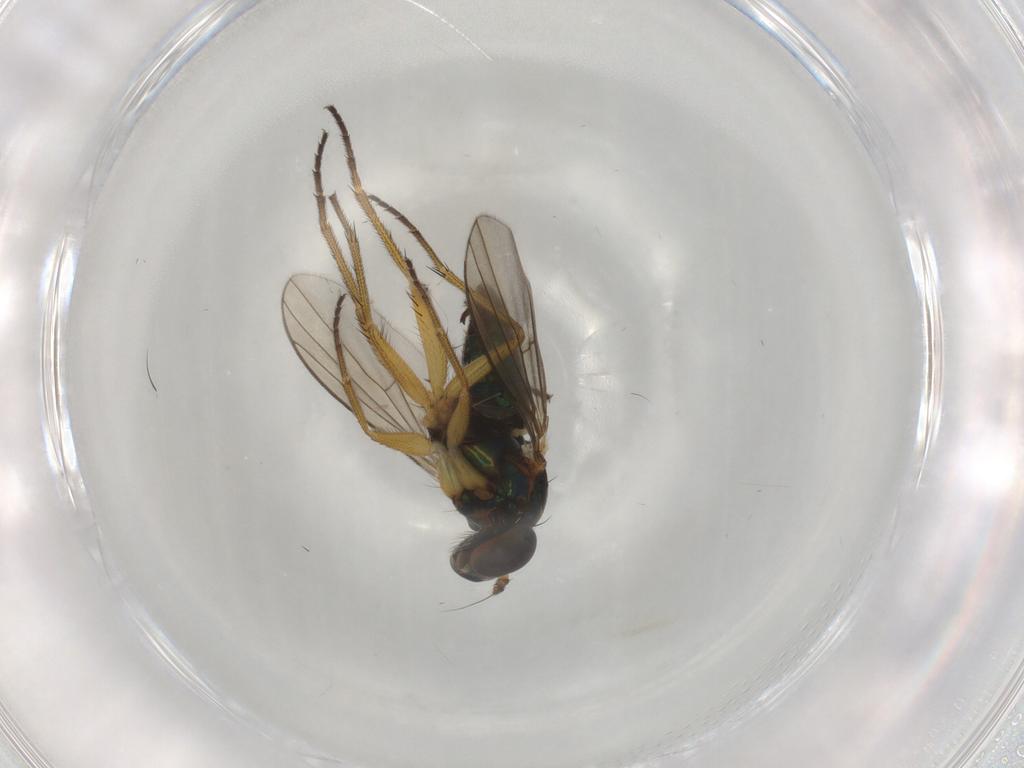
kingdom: Animalia
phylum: Arthropoda
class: Insecta
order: Diptera
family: Dolichopodidae
